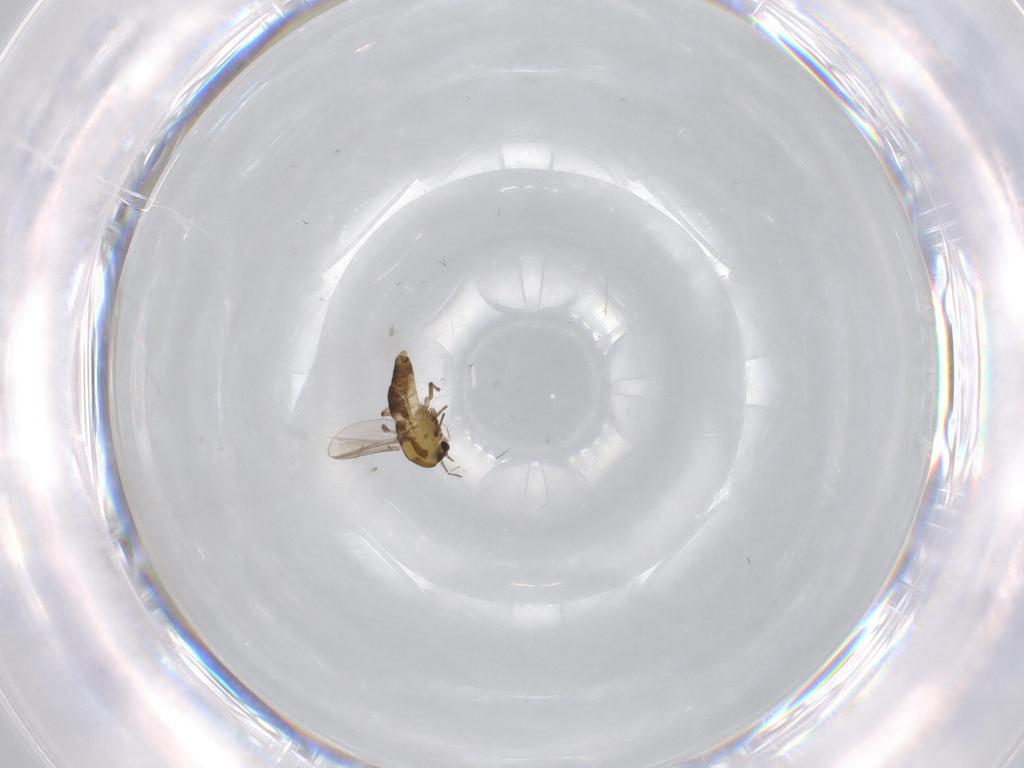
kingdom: Animalia
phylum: Arthropoda
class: Insecta
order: Diptera
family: Chironomidae
